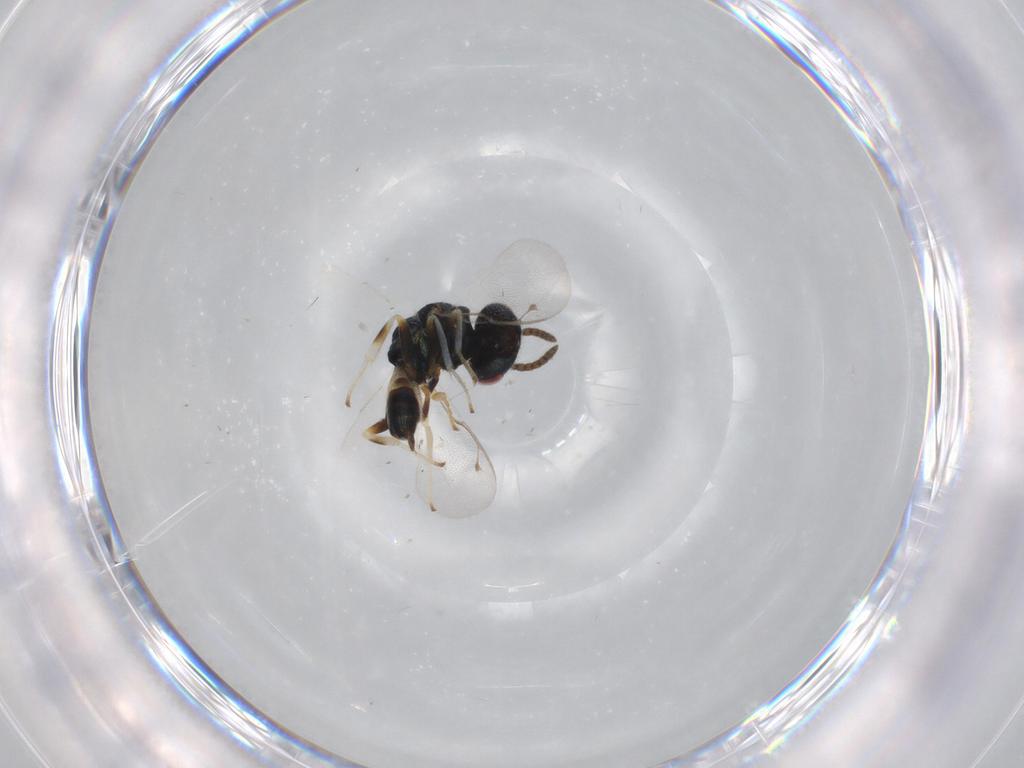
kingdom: Animalia
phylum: Arthropoda
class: Insecta
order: Hymenoptera
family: Pteromalidae
